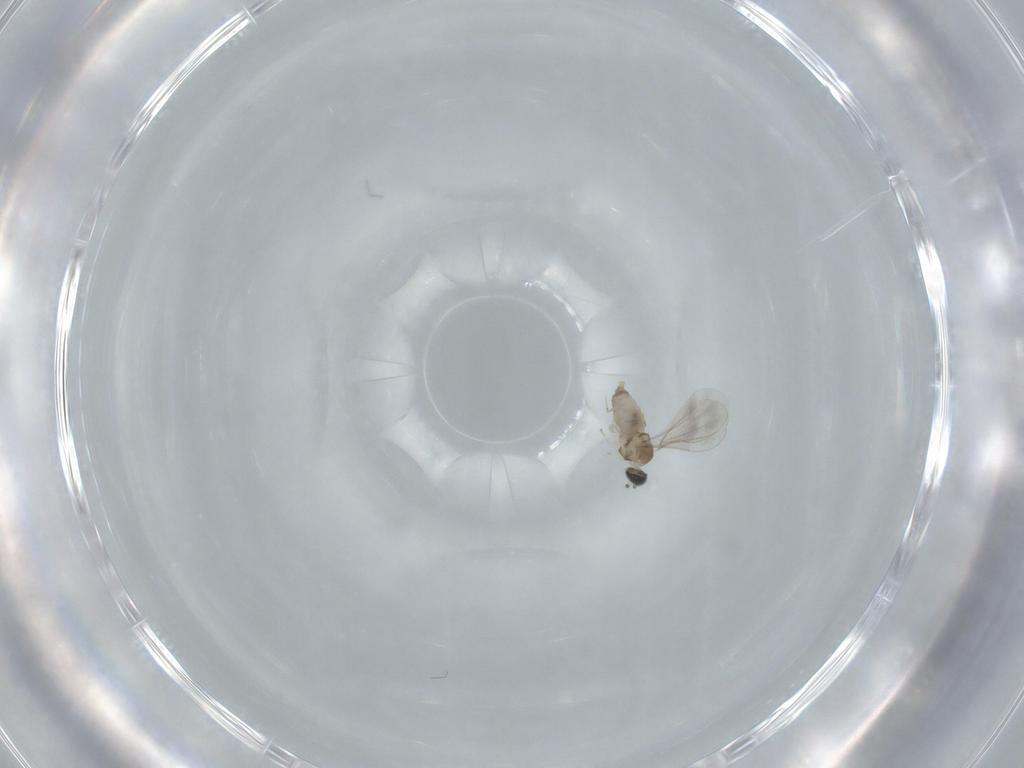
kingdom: Animalia
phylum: Arthropoda
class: Insecta
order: Diptera
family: Cecidomyiidae
